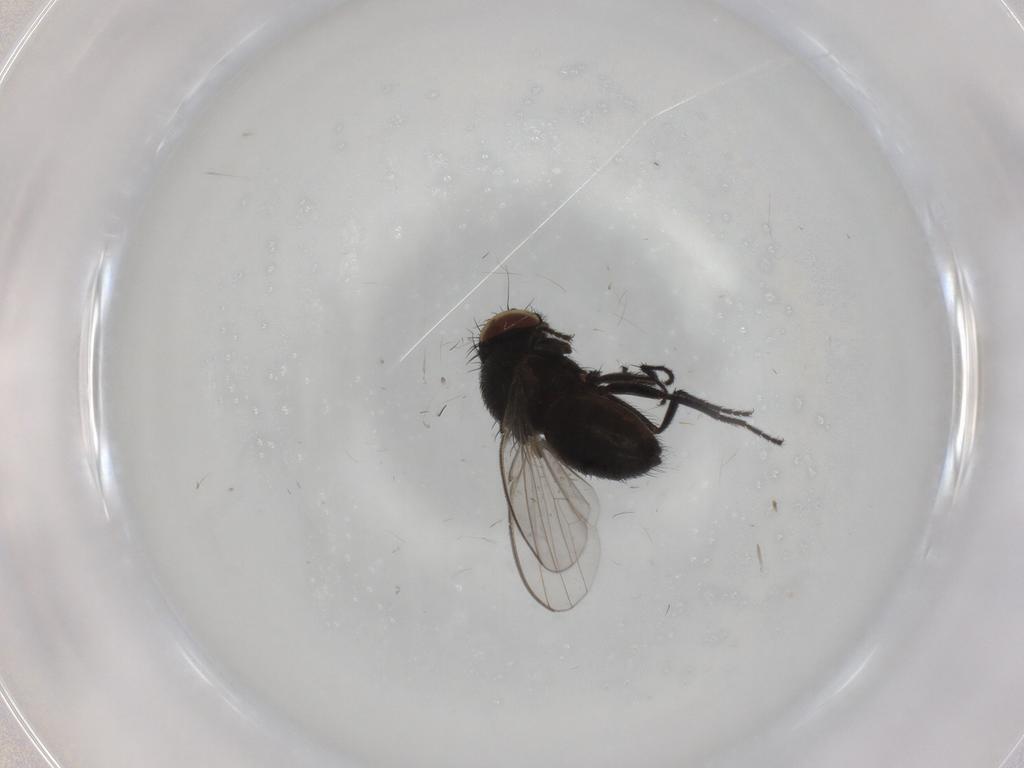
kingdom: Animalia
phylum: Arthropoda
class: Insecta
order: Diptera
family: Milichiidae
